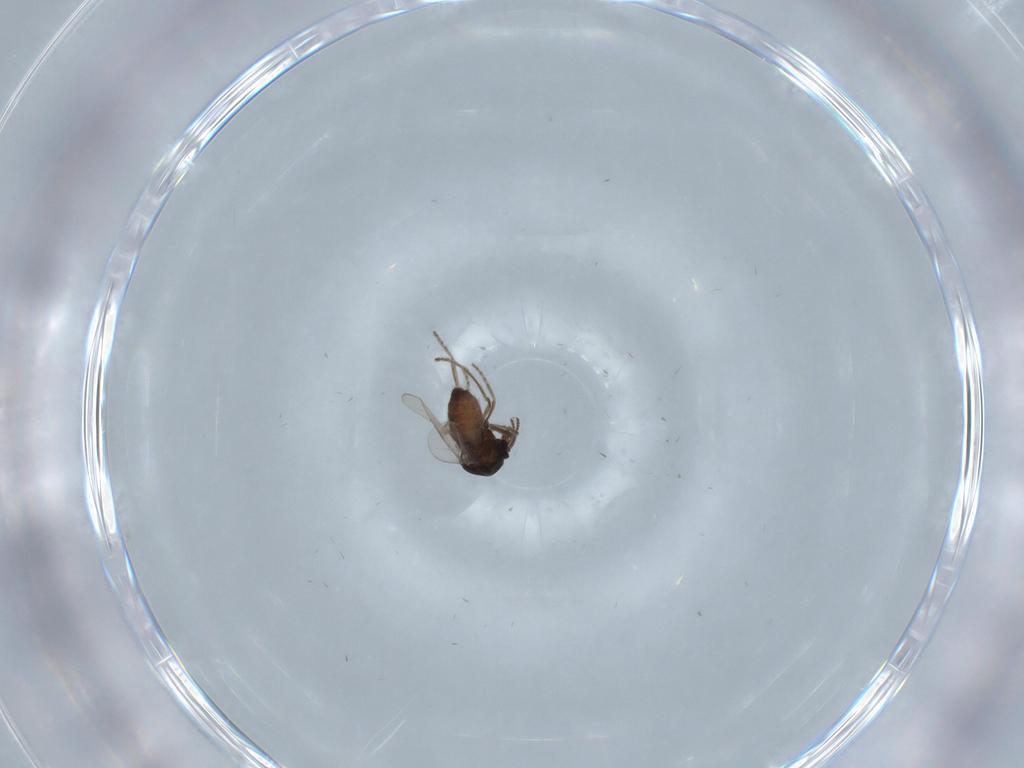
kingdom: Animalia
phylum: Arthropoda
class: Insecta
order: Diptera
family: Ceratopogonidae
